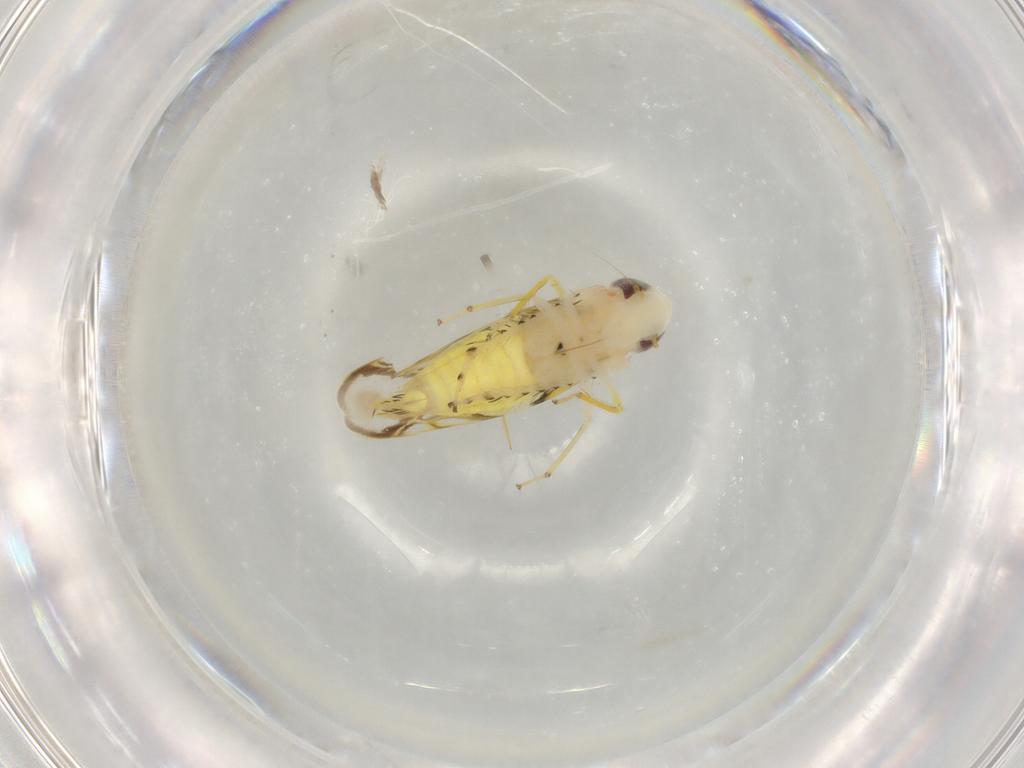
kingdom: Animalia
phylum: Arthropoda
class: Insecta
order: Hemiptera
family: Cicadellidae
